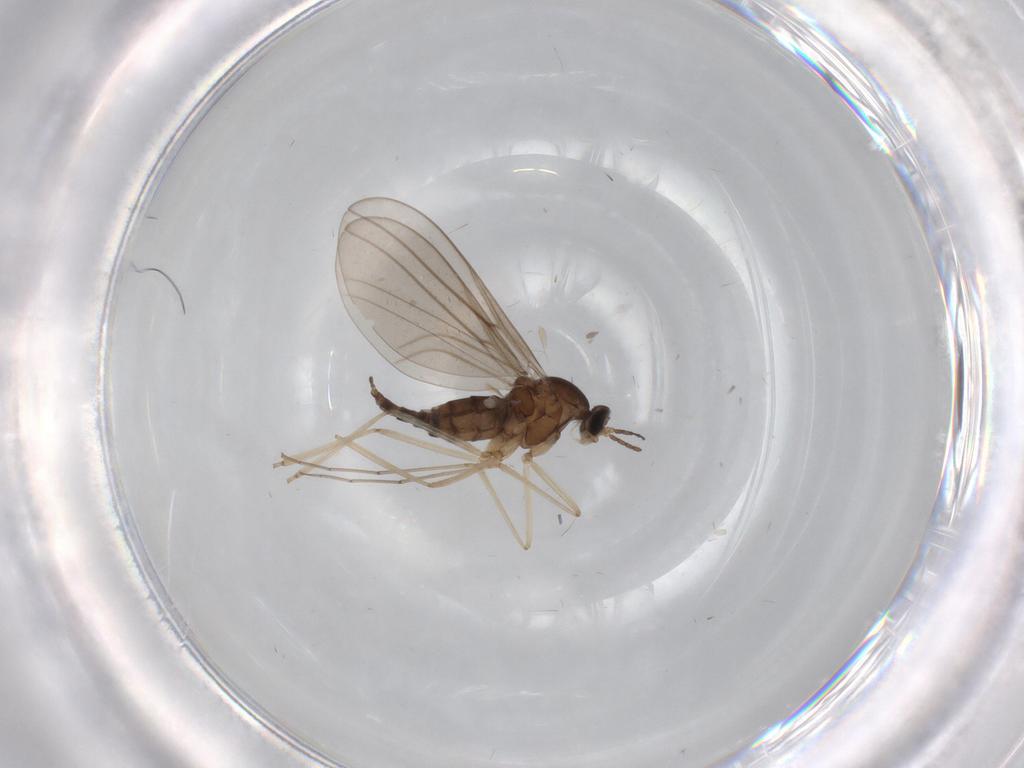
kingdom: Animalia
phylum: Arthropoda
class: Insecta
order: Diptera
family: Cecidomyiidae
